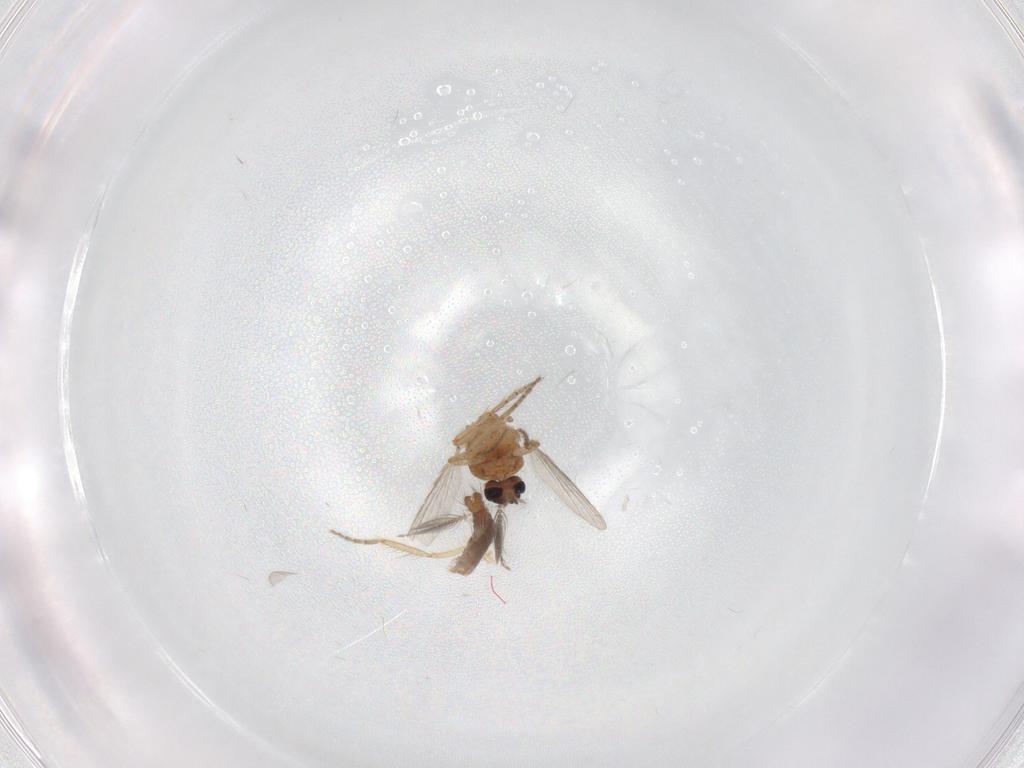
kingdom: Animalia
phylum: Arthropoda
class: Insecta
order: Diptera
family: Ceratopogonidae
